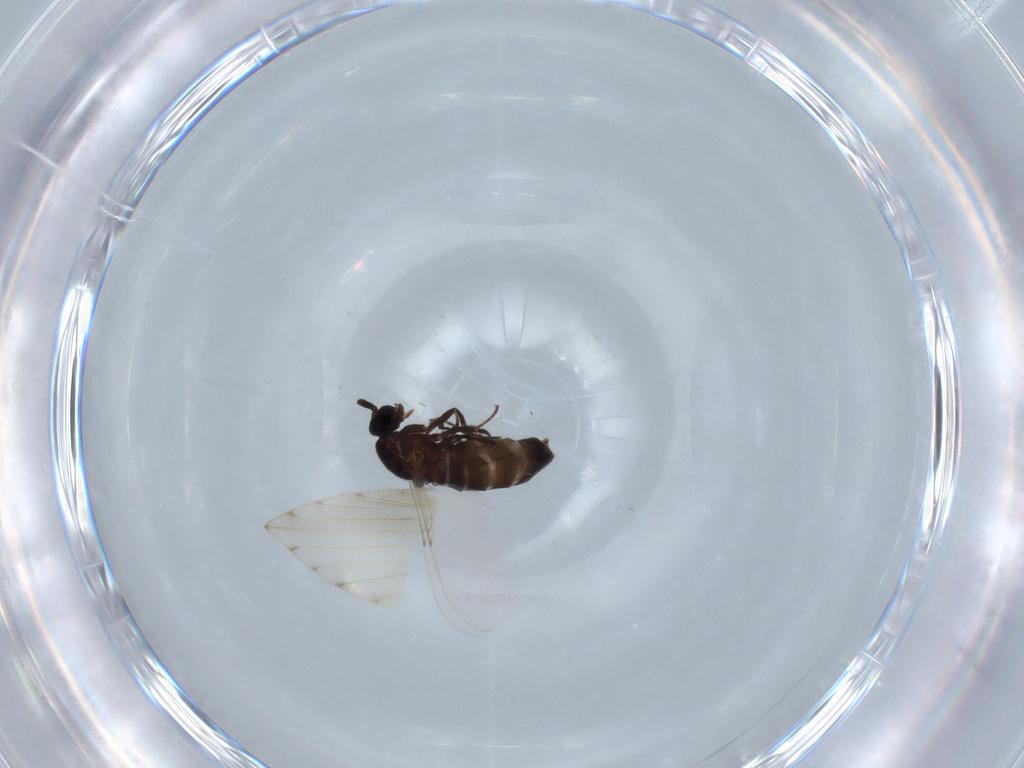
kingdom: Animalia
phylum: Arthropoda
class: Insecta
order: Diptera
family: Scatopsidae
